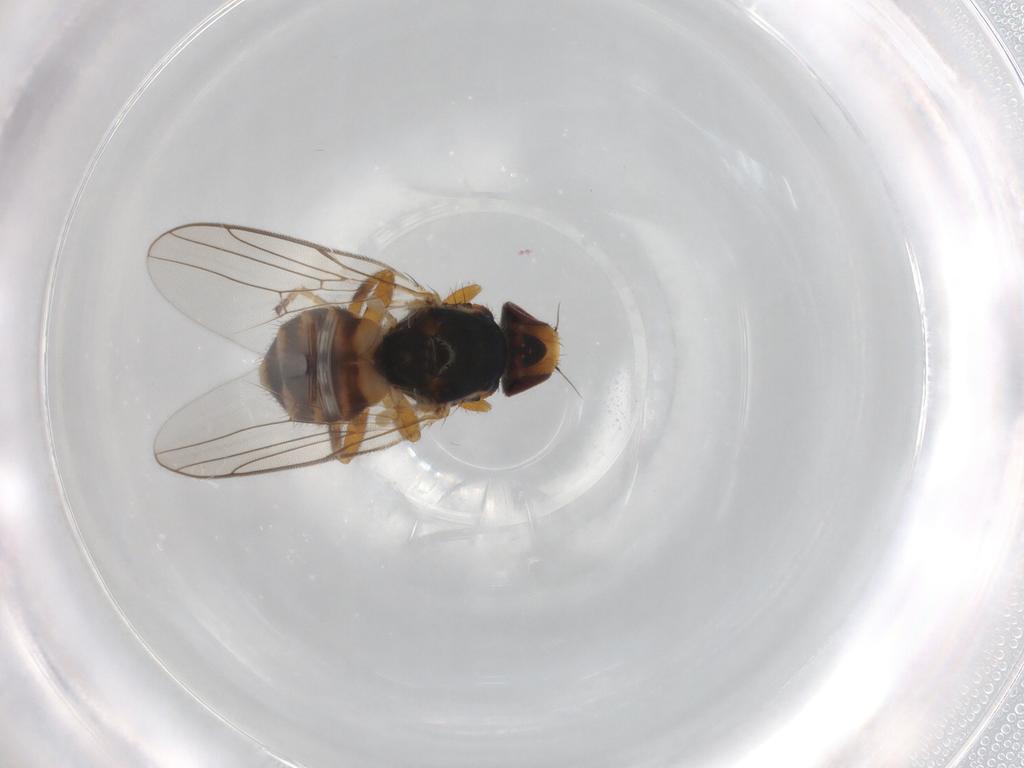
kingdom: Animalia
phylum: Arthropoda
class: Insecta
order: Diptera
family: Chloropidae
